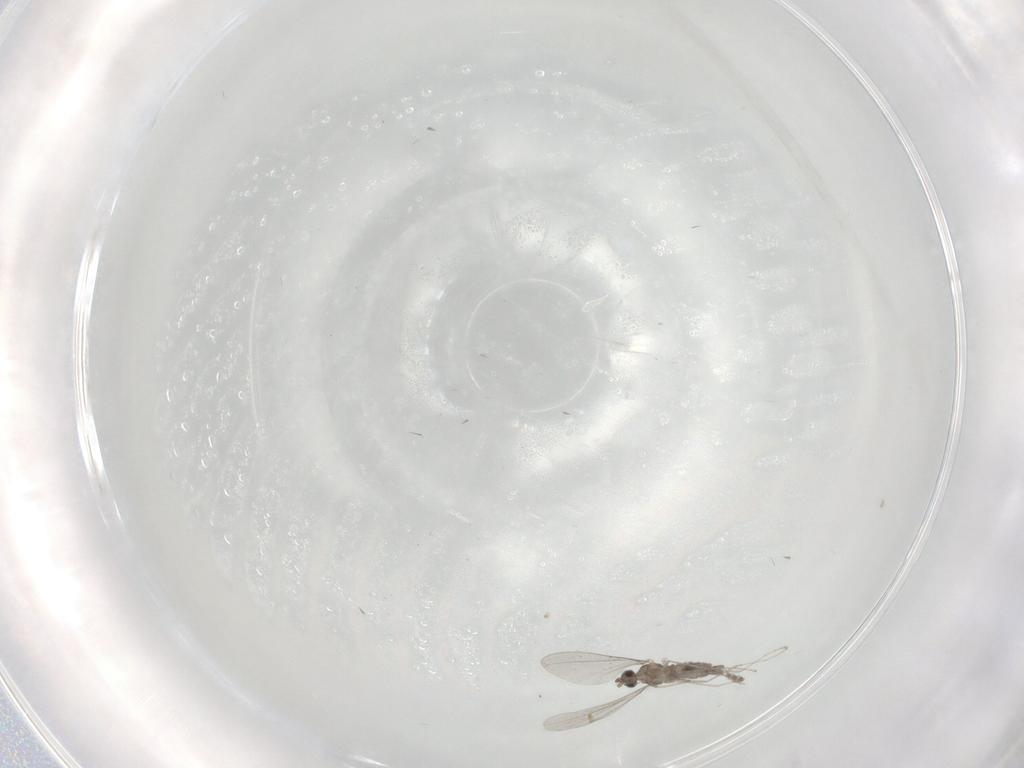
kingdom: Animalia
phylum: Arthropoda
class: Insecta
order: Diptera
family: Cecidomyiidae
